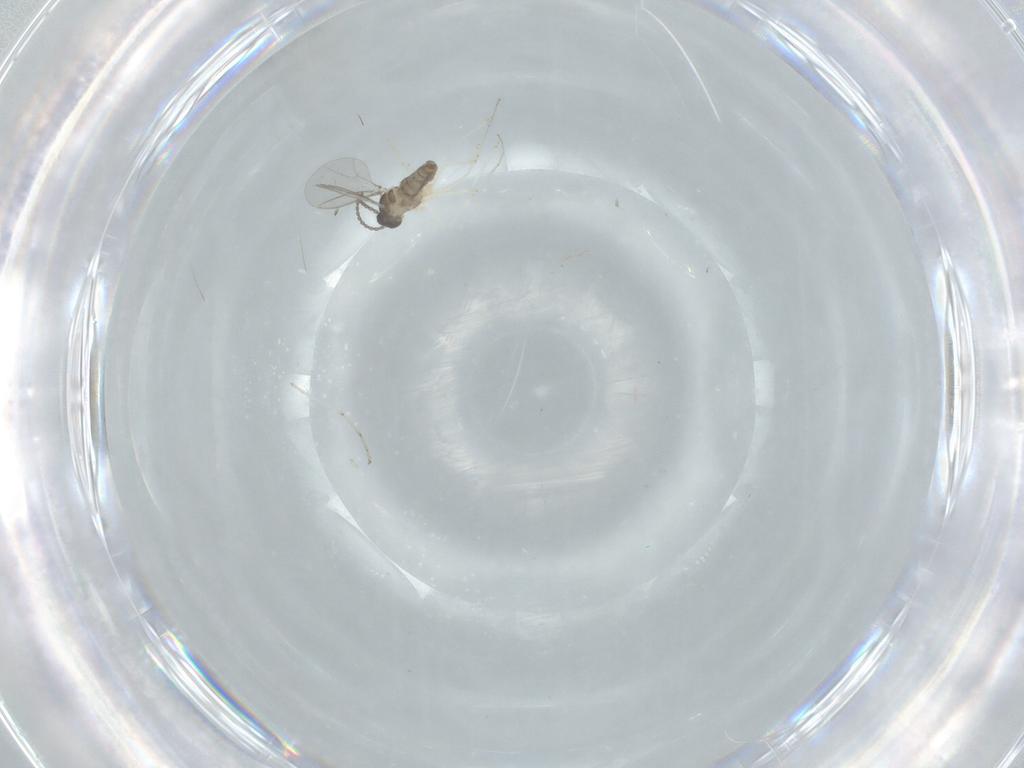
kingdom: Animalia
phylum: Arthropoda
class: Insecta
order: Diptera
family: Cecidomyiidae
